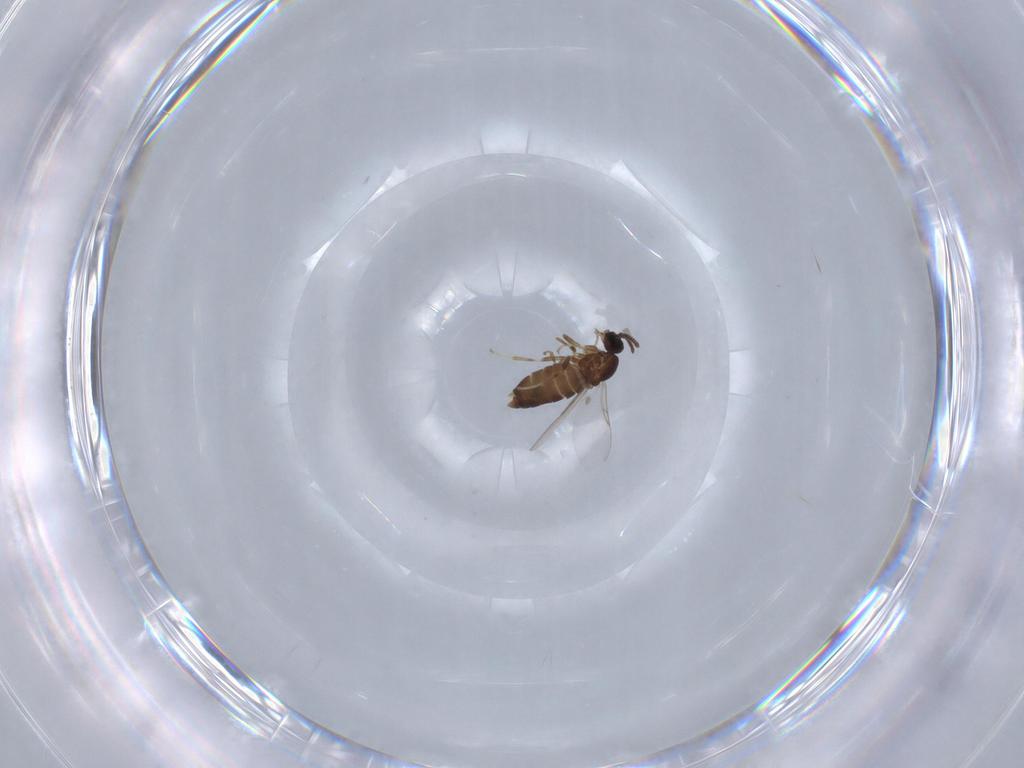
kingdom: Animalia
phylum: Arthropoda
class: Insecta
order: Diptera
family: Scatopsidae
